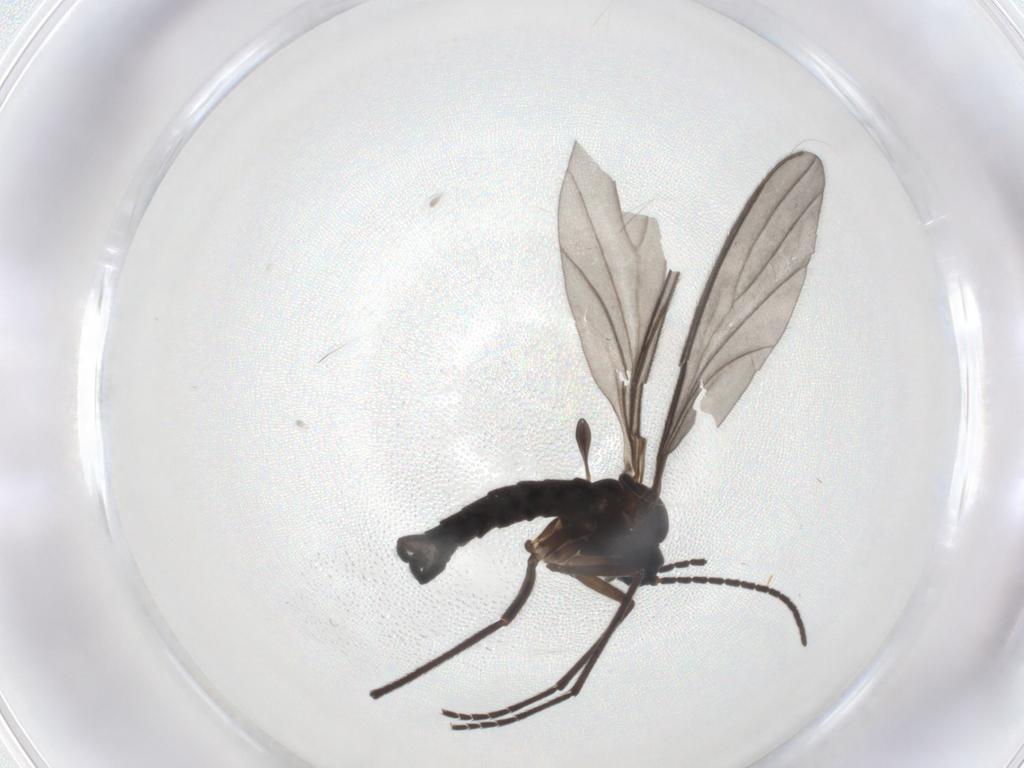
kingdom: Animalia
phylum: Arthropoda
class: Insecta
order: Diptera
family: Sciaridae
